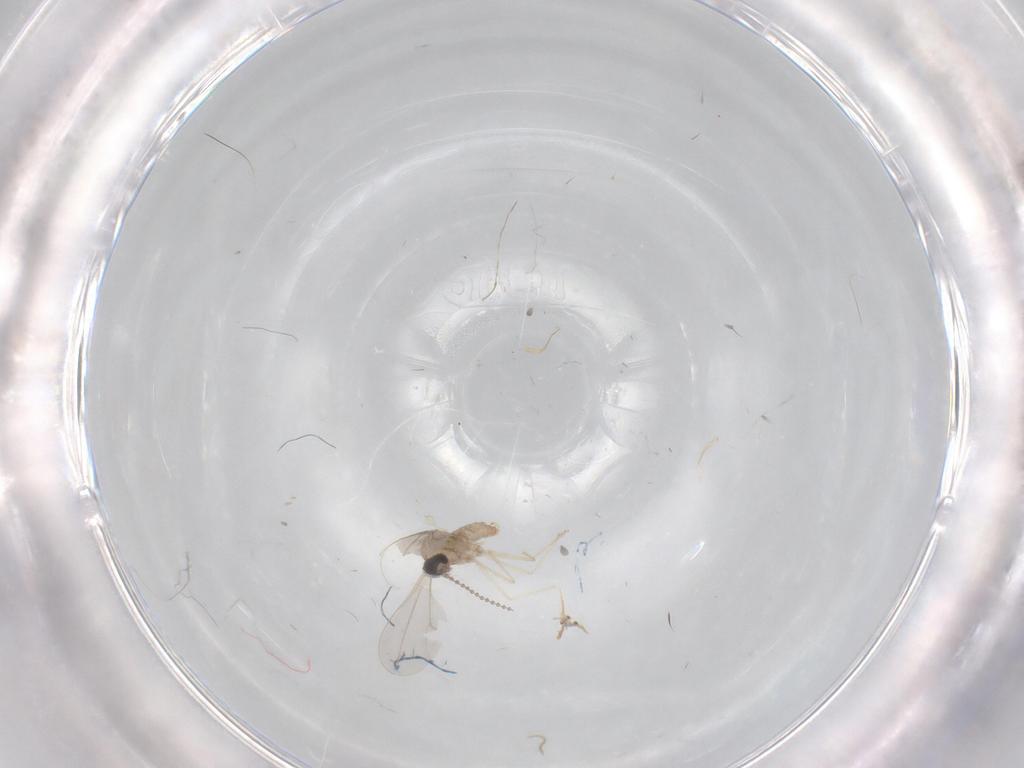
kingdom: Animalia
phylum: Arthropoda
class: Insecta
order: Diptera
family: Cecidomyiidae
